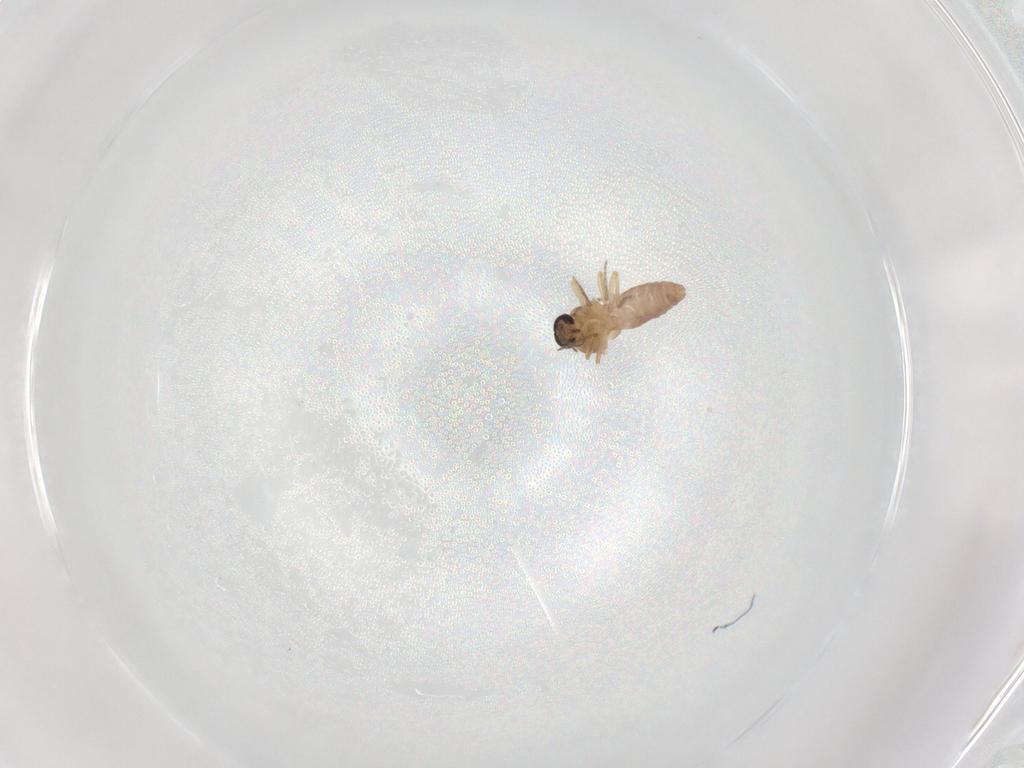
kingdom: Animalia
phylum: Arthropoda
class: Insecta
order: Diptera
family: Ceratopogonidae
